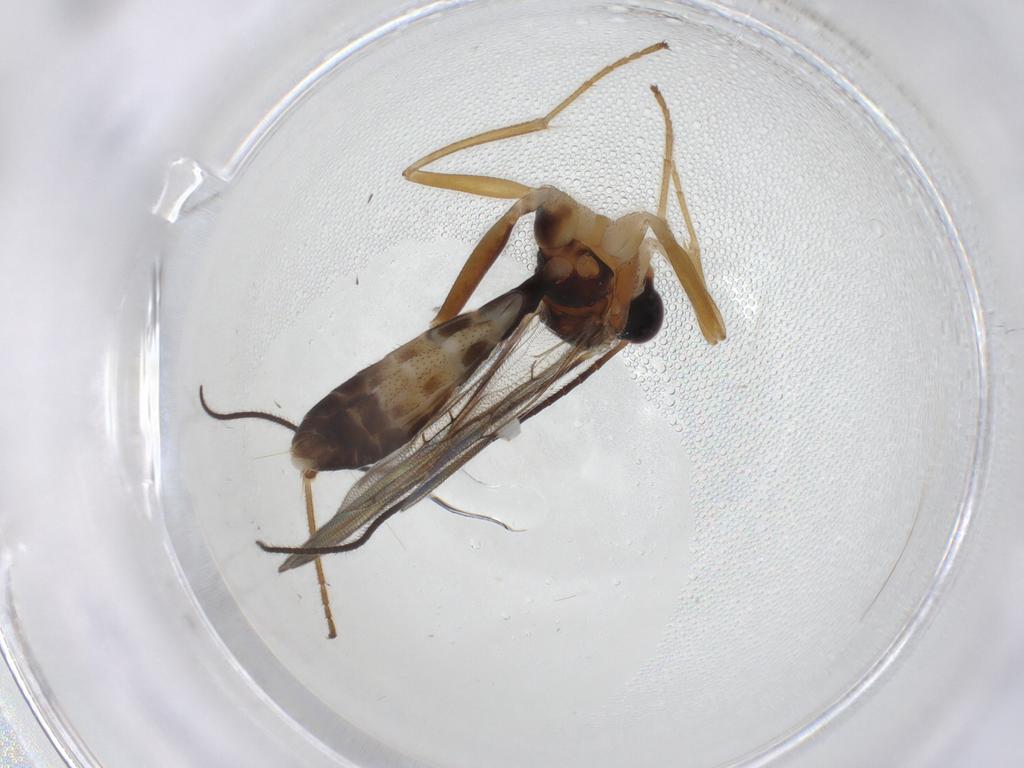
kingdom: Animalia
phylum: Arthropoda
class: Insecta
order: Hymenoptera
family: Ichneumonidae
